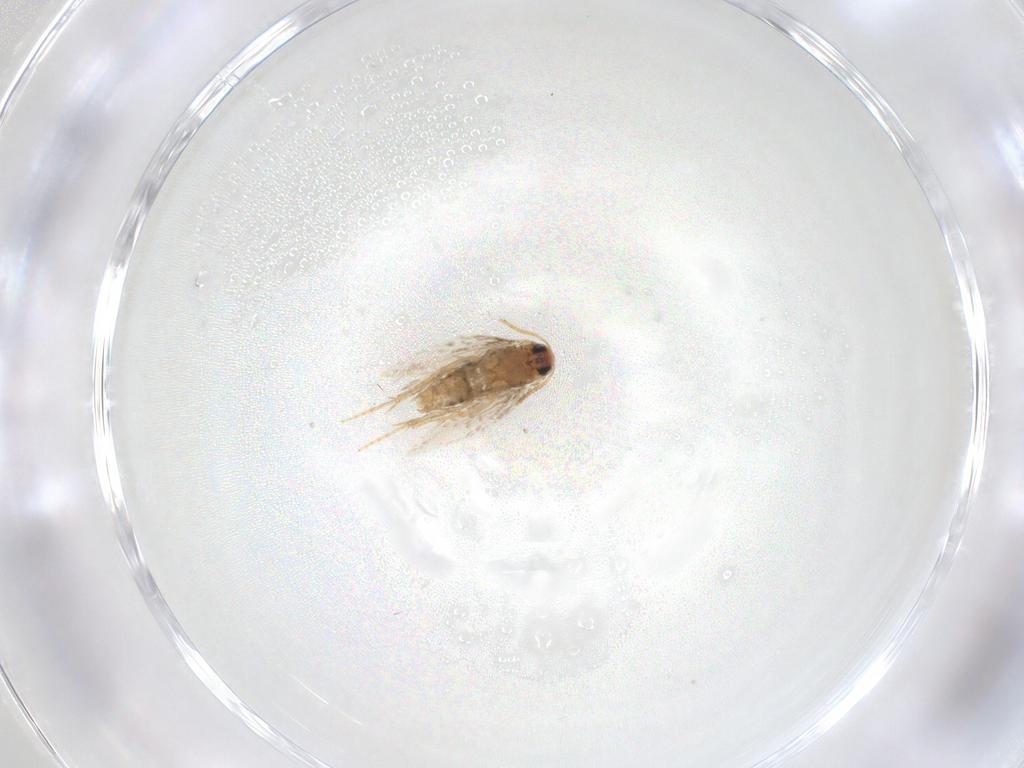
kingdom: Animalia
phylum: Arthropoda
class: Insecta
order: Lepidoptera
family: Copromorphidae
